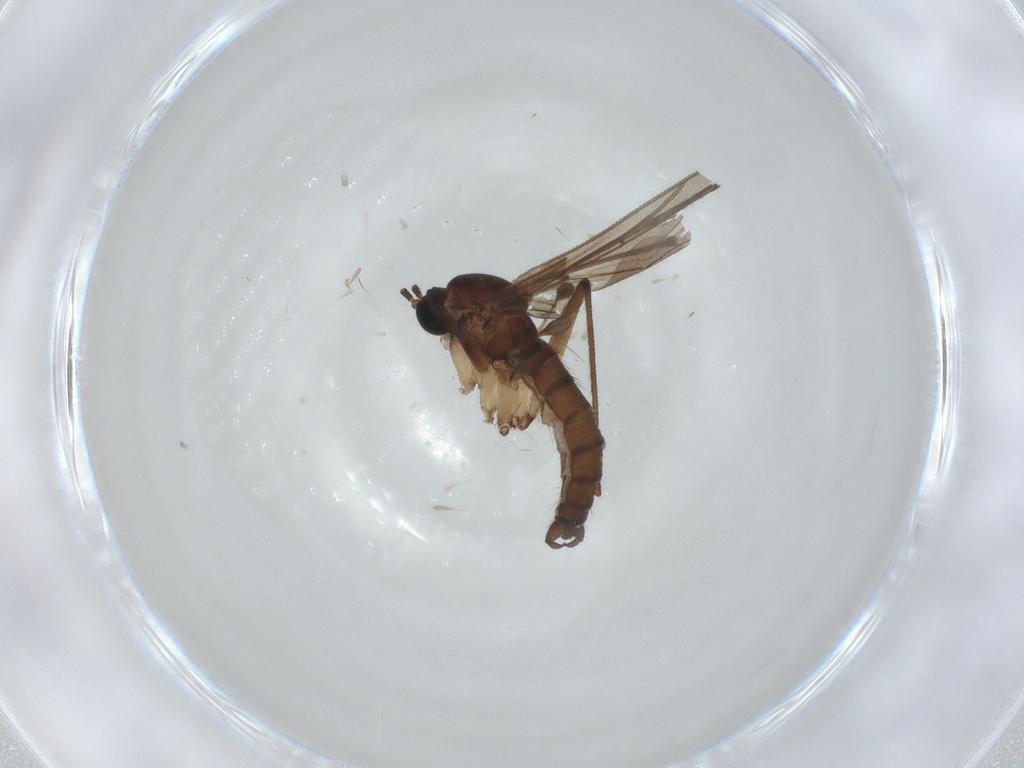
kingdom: Animalia
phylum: Arthropoda
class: Insecta
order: Diptera
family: Sciaridae
